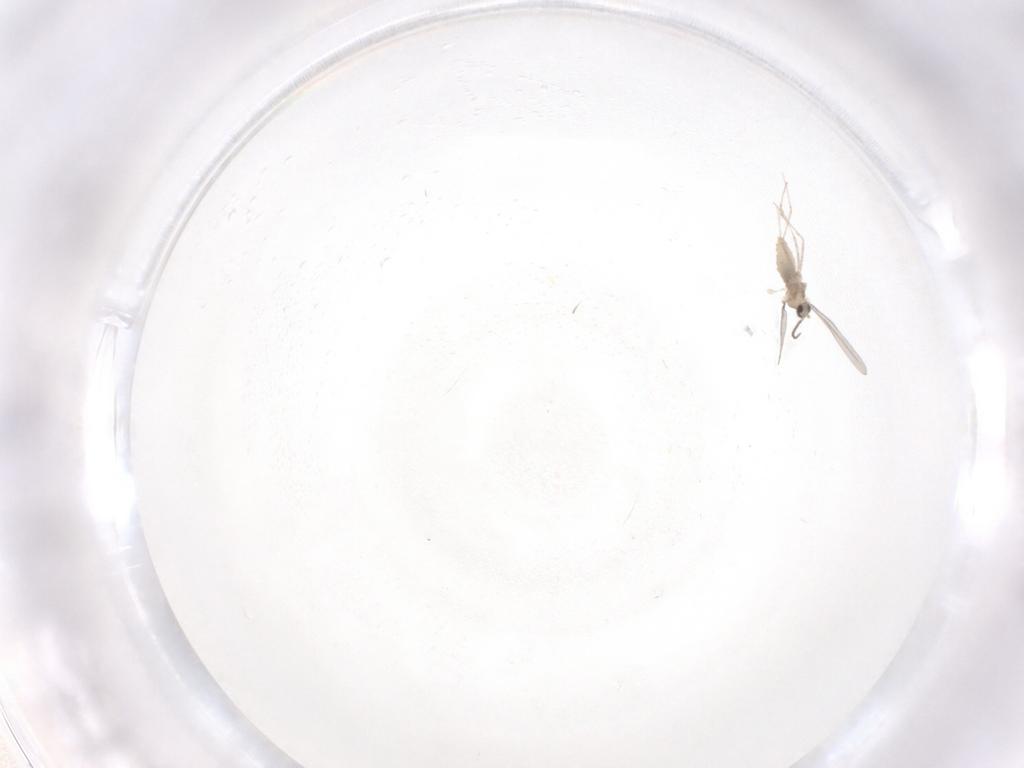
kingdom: Animalia
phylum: Arthropoda
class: Insecta
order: Diptera
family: Cecidomyiidae
